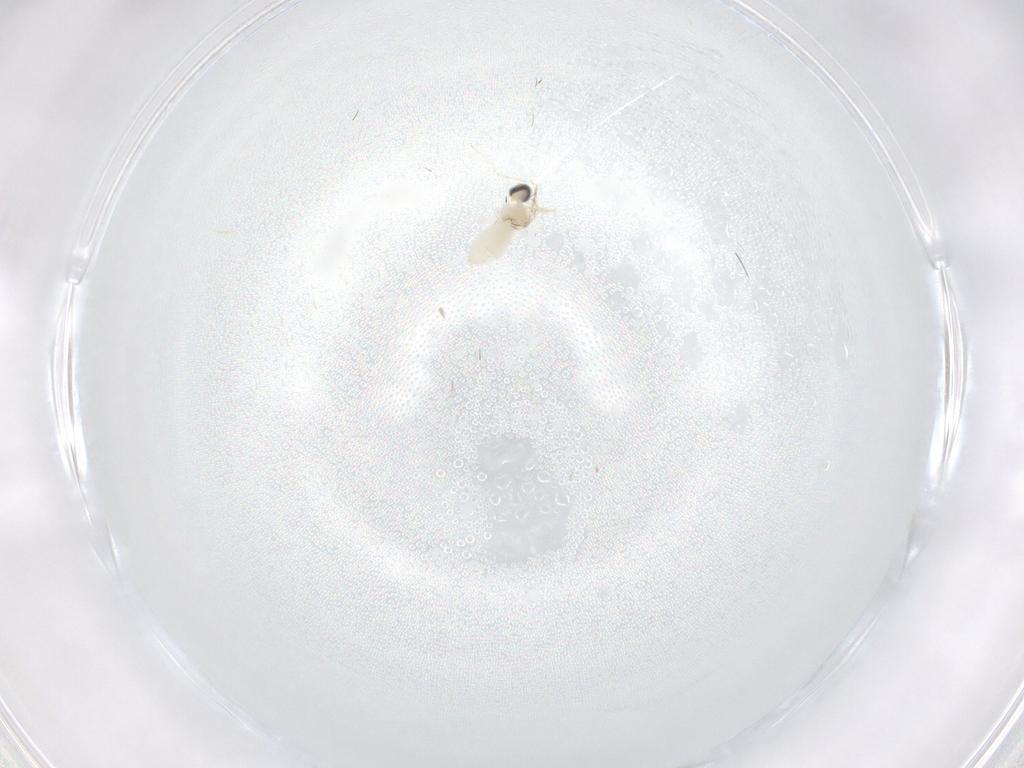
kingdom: Animalia
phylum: Arthropoda
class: Insecta
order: Diptera
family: Cecidomyiidae
